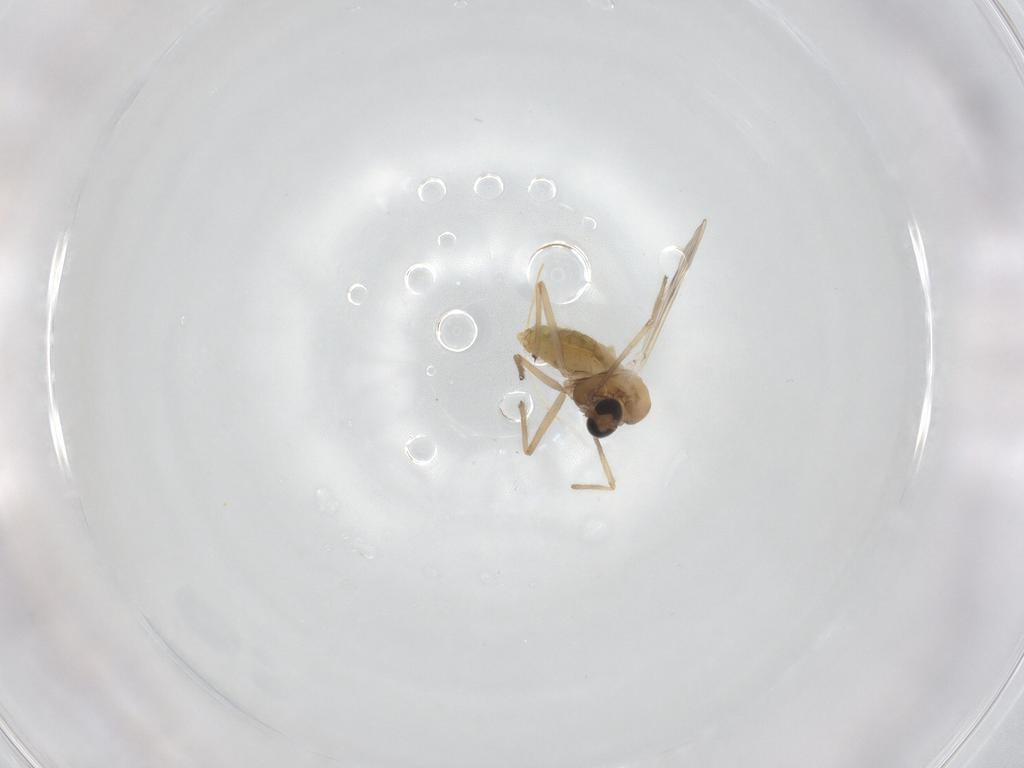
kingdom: Animalia
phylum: Arthropoda
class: Insecta
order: Diptera
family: Chironomidae
